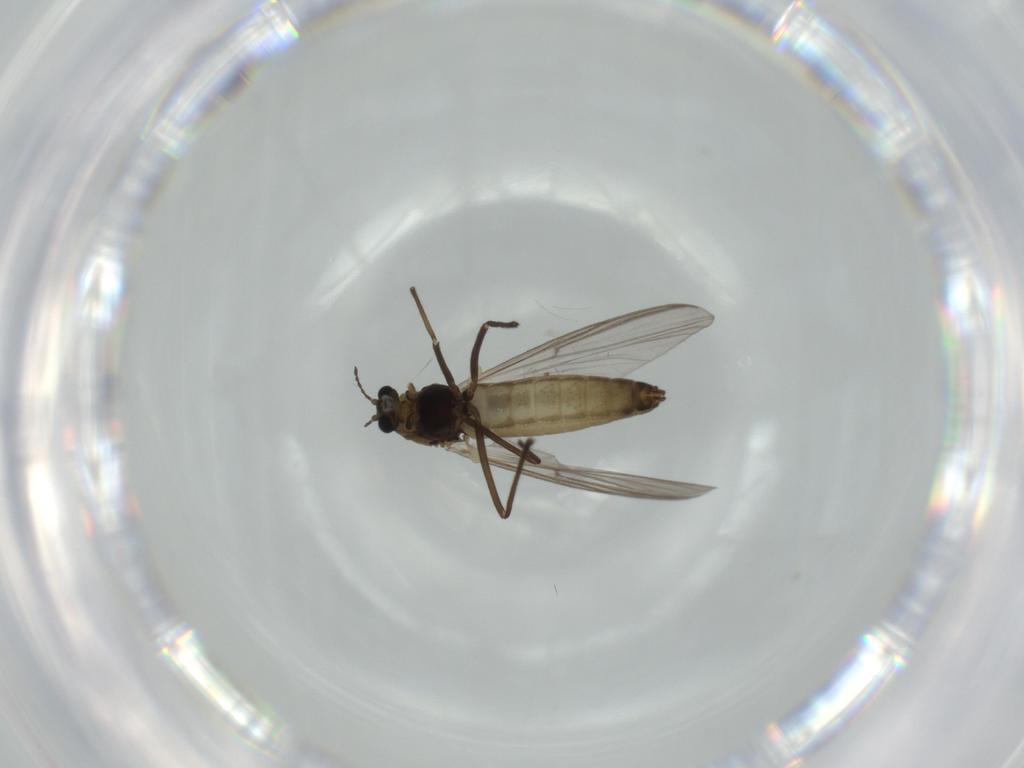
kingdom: Animalia
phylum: Arthropoda
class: Insecta
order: Diptera
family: Chironomidae
